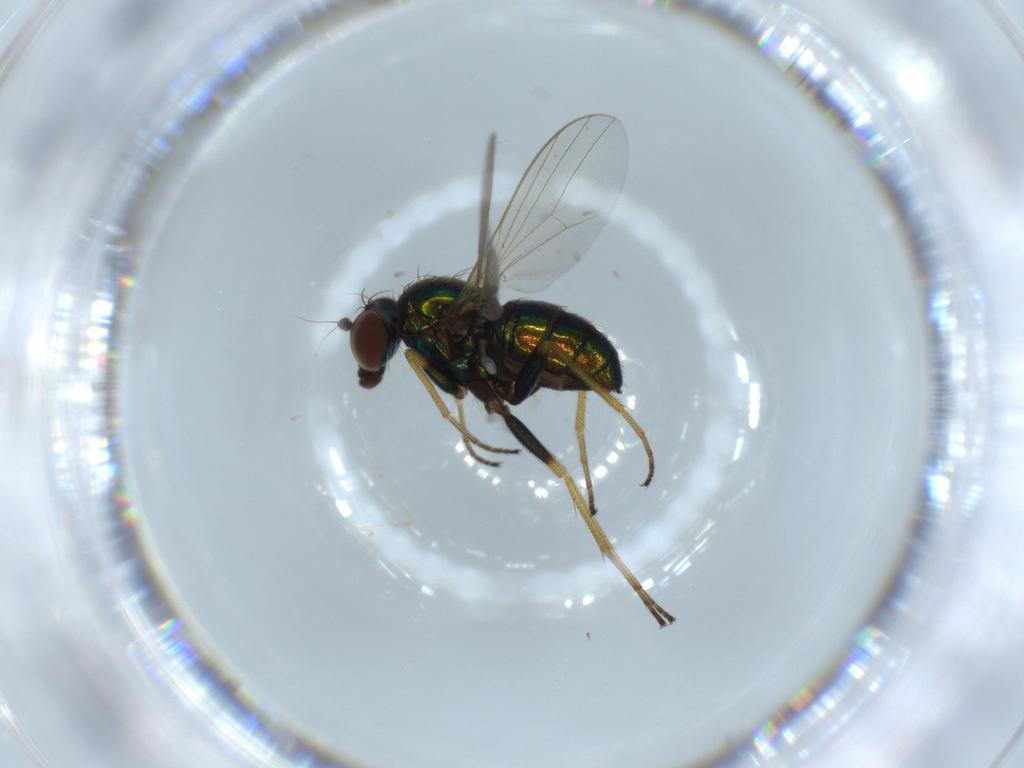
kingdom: Animalia
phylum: Arthropoda
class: Insecta
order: Diptera
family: Dolichopodidae
